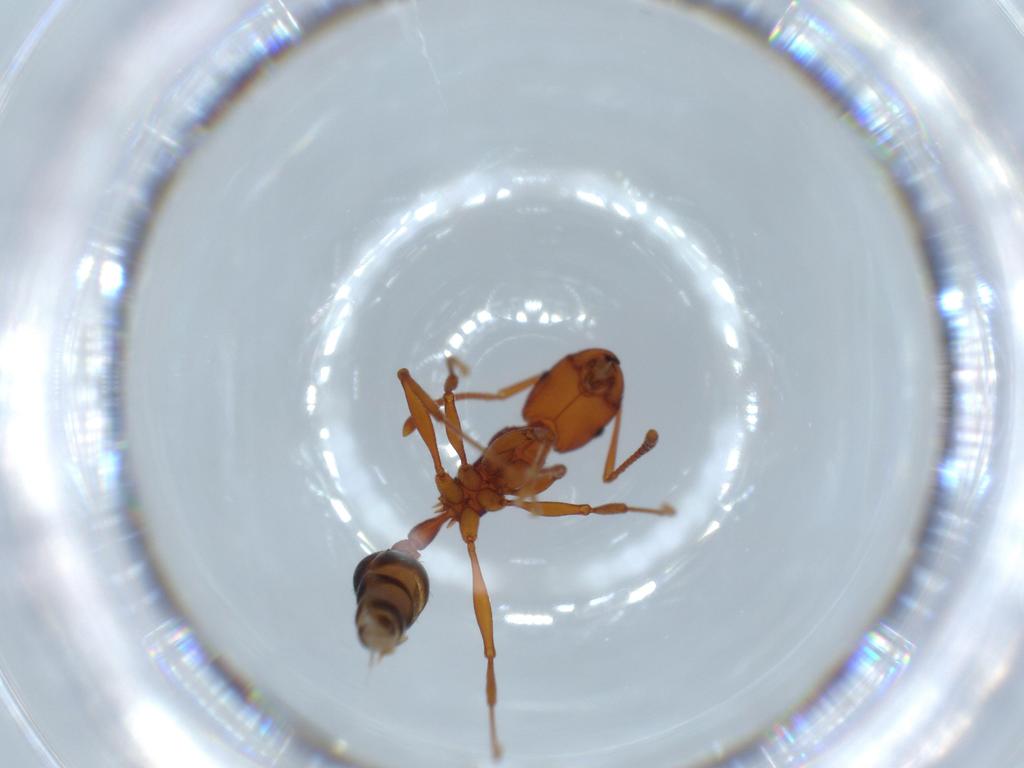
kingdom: Animalia
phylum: Arthropoda
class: Insecta
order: Hymenoptera
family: Formicidae
